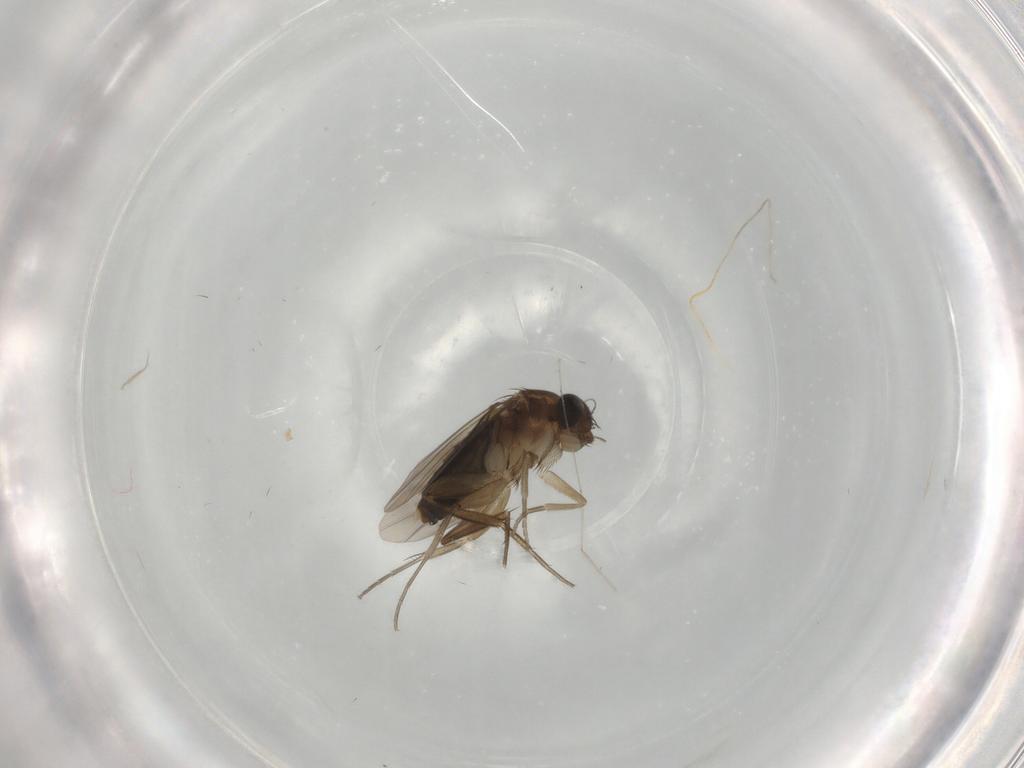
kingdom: Animalia
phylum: Arthropoda
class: Insecta
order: Diptera
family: Phoridae
